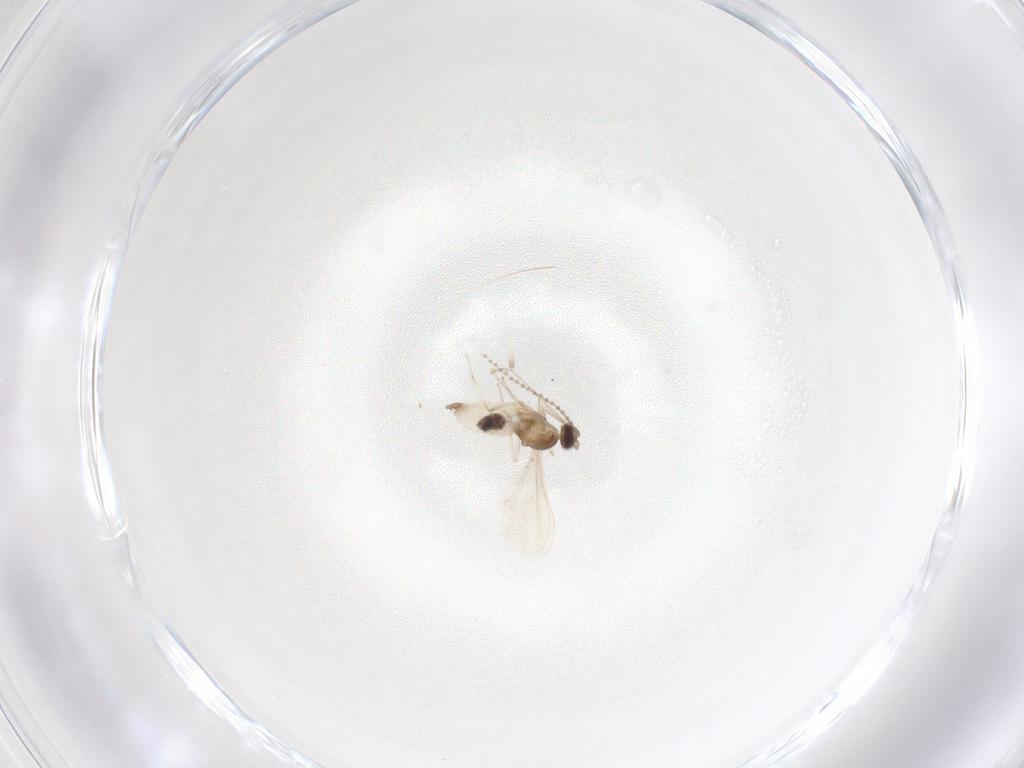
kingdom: Animalia
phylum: Arthropoda
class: Insecta
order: Diptera
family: Cecidomyiidae
